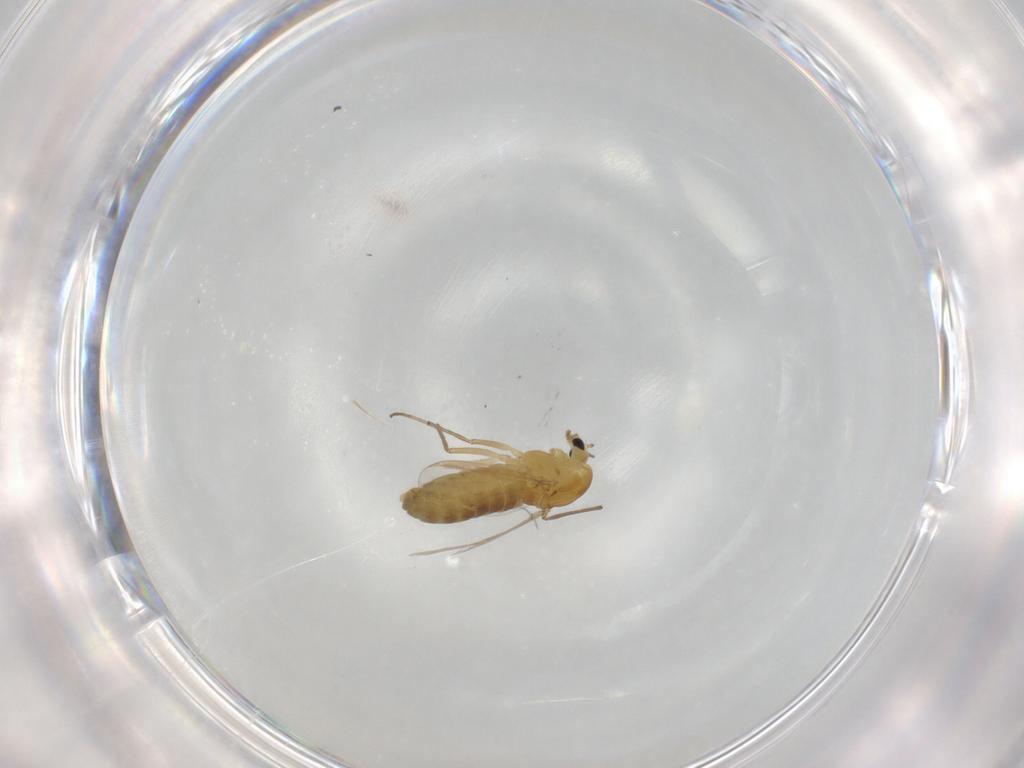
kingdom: Animalia
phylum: Arthropoda
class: Insecta
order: Diptera
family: Chironomidae
